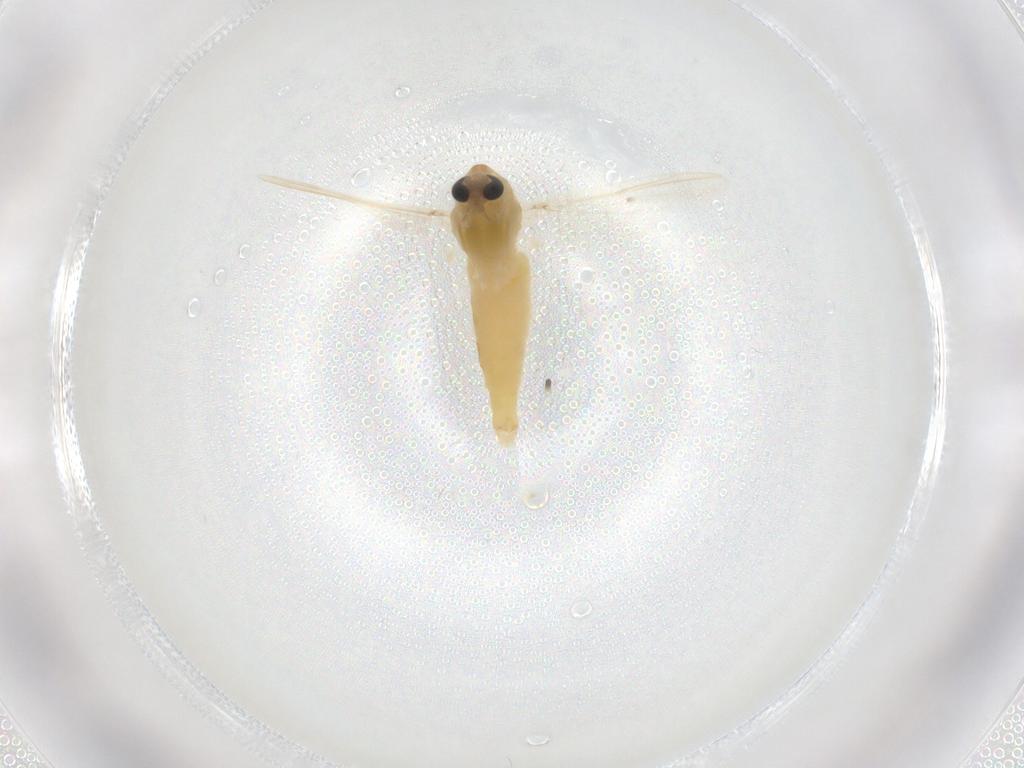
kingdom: Animalia
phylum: Arthropoda
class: Insecta
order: Diptera
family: Chironomidae
